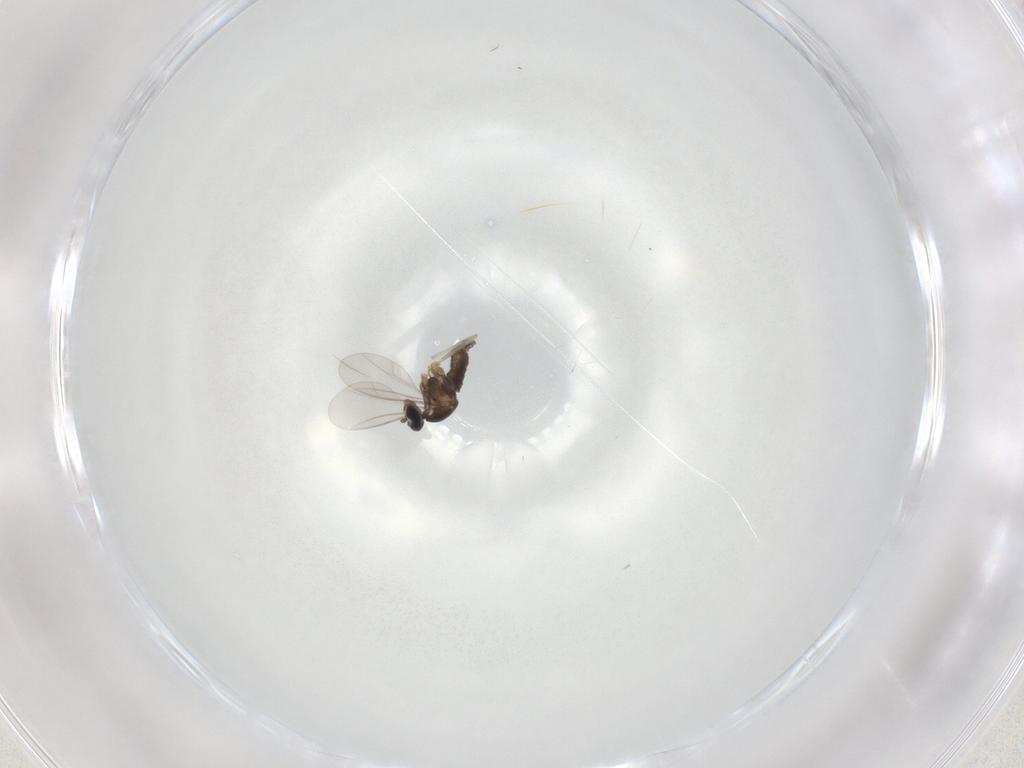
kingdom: Animalia
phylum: Arthropoda
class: Insecta
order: Diptera
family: Cecidomyiidae
